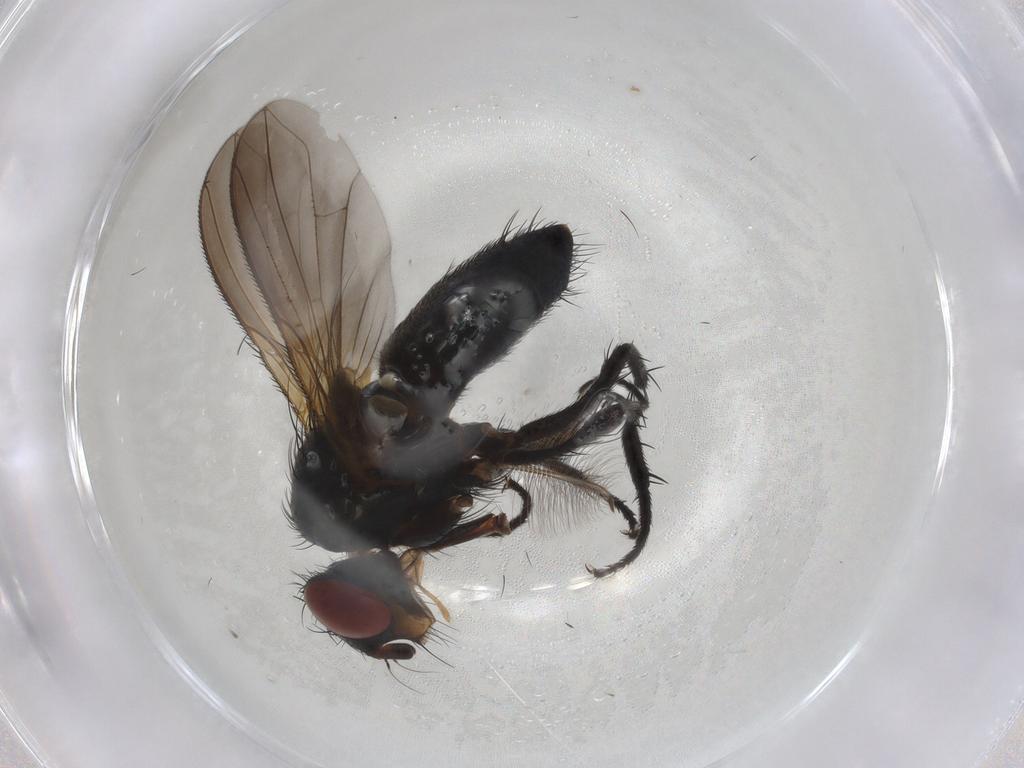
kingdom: Animalia
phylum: Arthropoda
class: Insecta
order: Diptera
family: Calliphoridae
